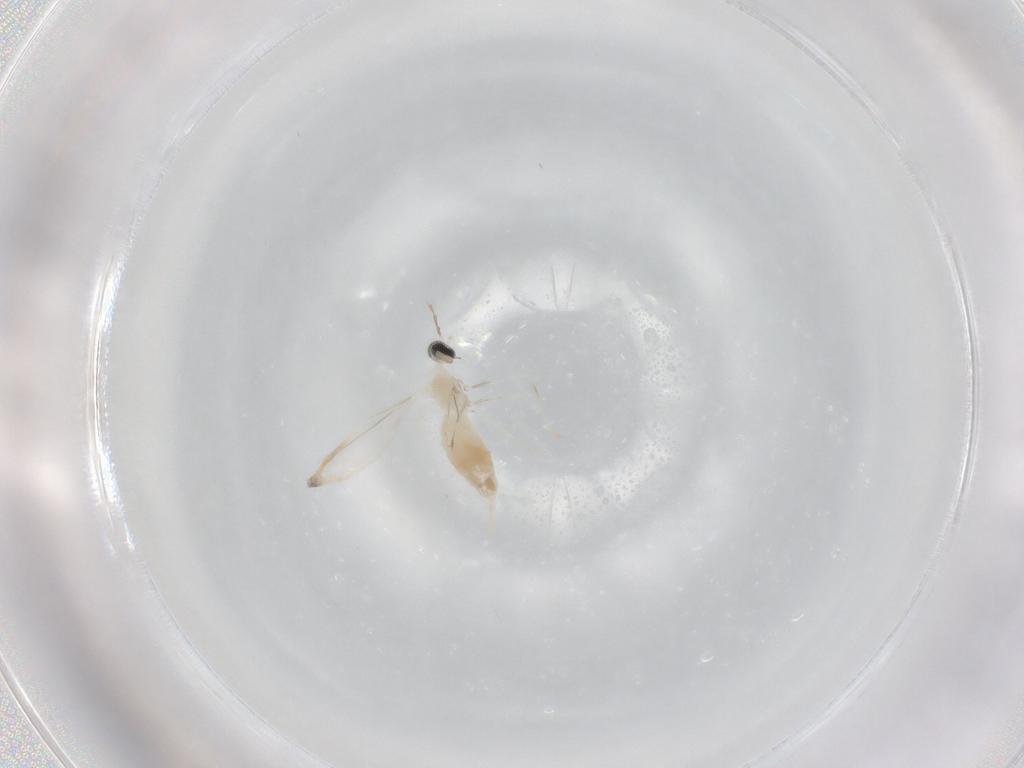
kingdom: Animalia
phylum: Arthropoda
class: Insecta
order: Diptera
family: Cecidomyiidae
